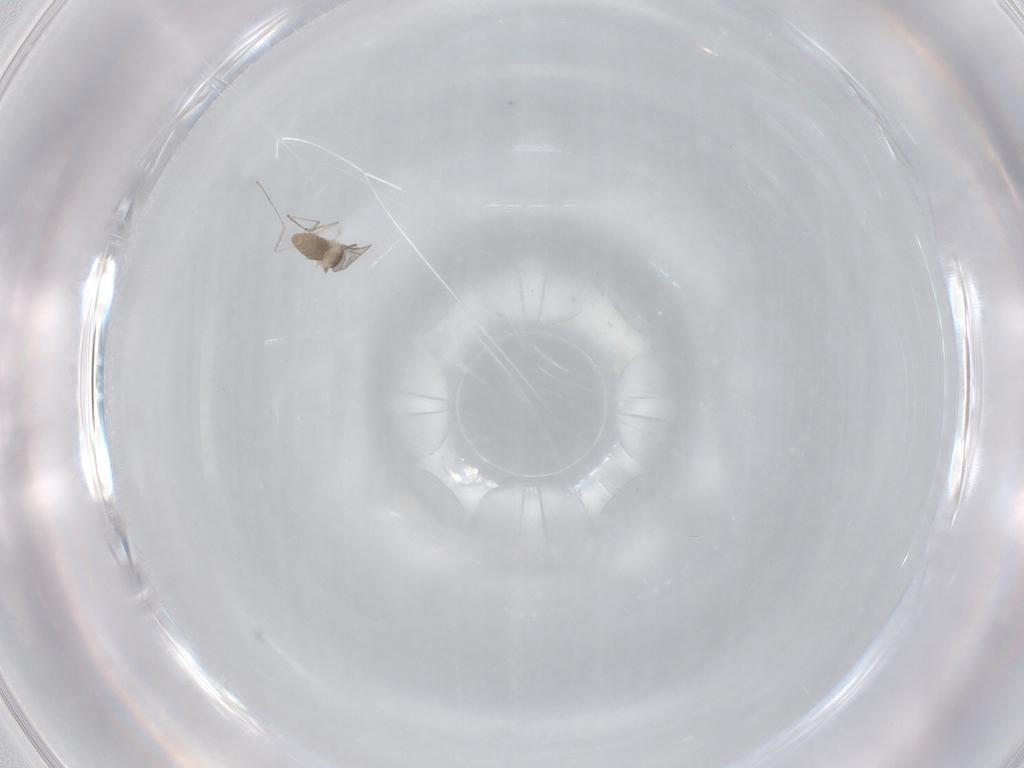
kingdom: Animalia
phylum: Arthropoda
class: Insecta
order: Diptera
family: Cecidomyiidae
